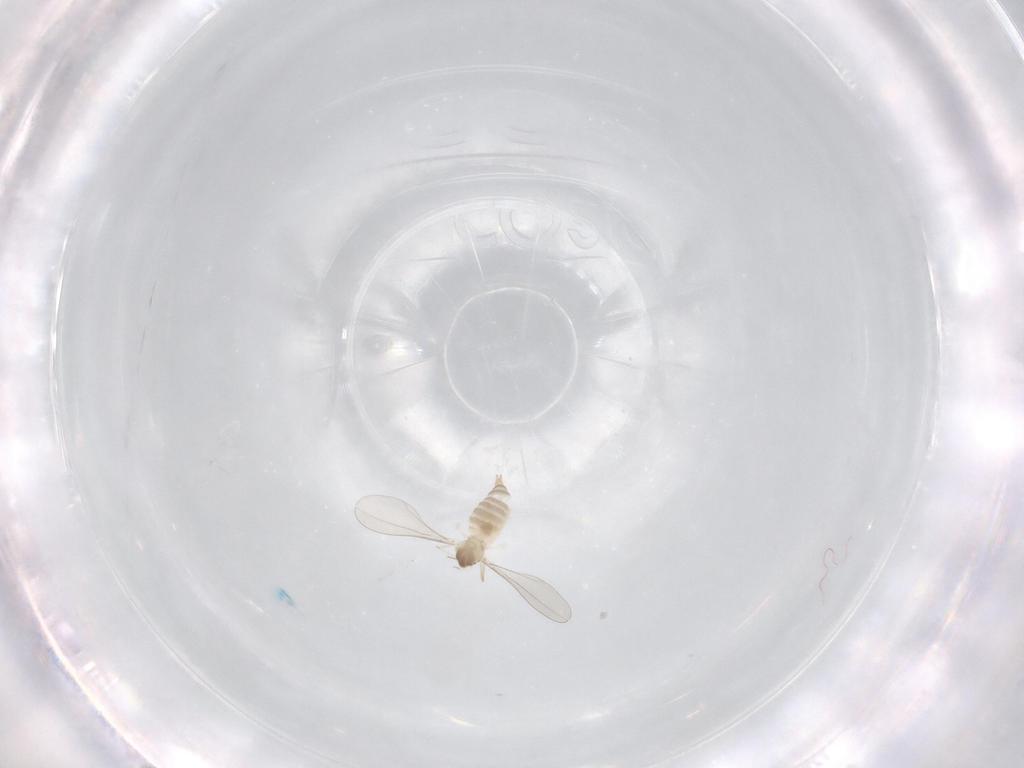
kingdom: Animalia
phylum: Arthropoda
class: Insecta
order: Diptera
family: Cecidomyiidae
